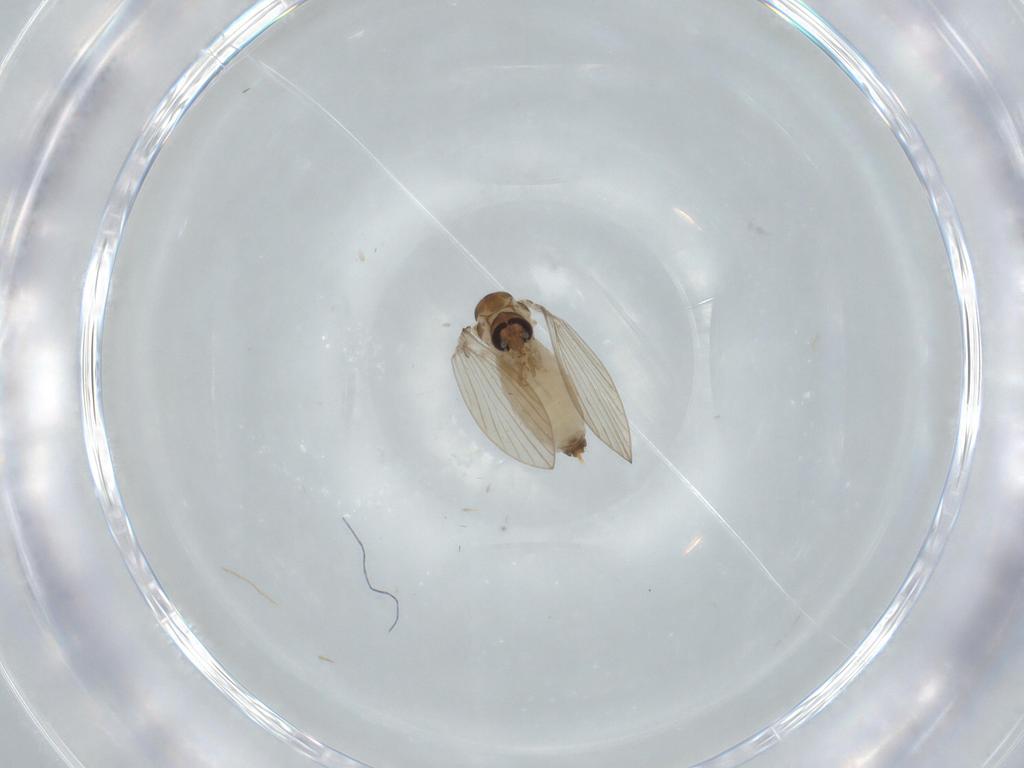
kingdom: Animalia
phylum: Arthropoda
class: Insecta
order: Diptera
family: Psychodidae
